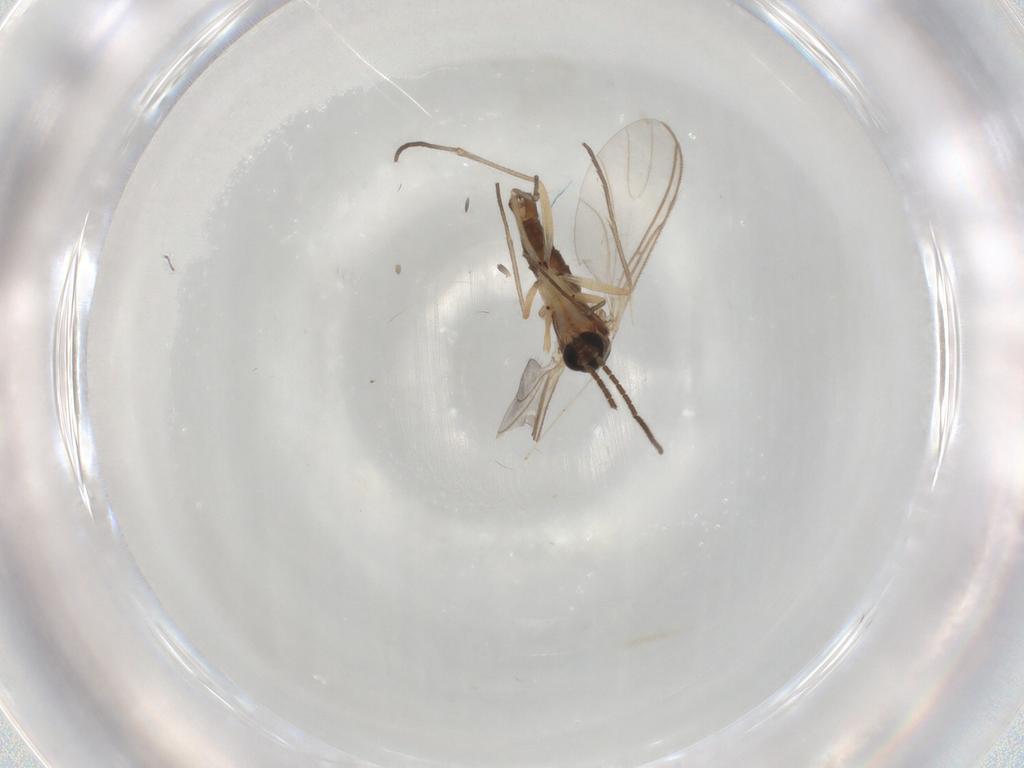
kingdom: Animalia
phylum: Arthropoda
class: Insecta
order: Diptera
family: Sciaridae
